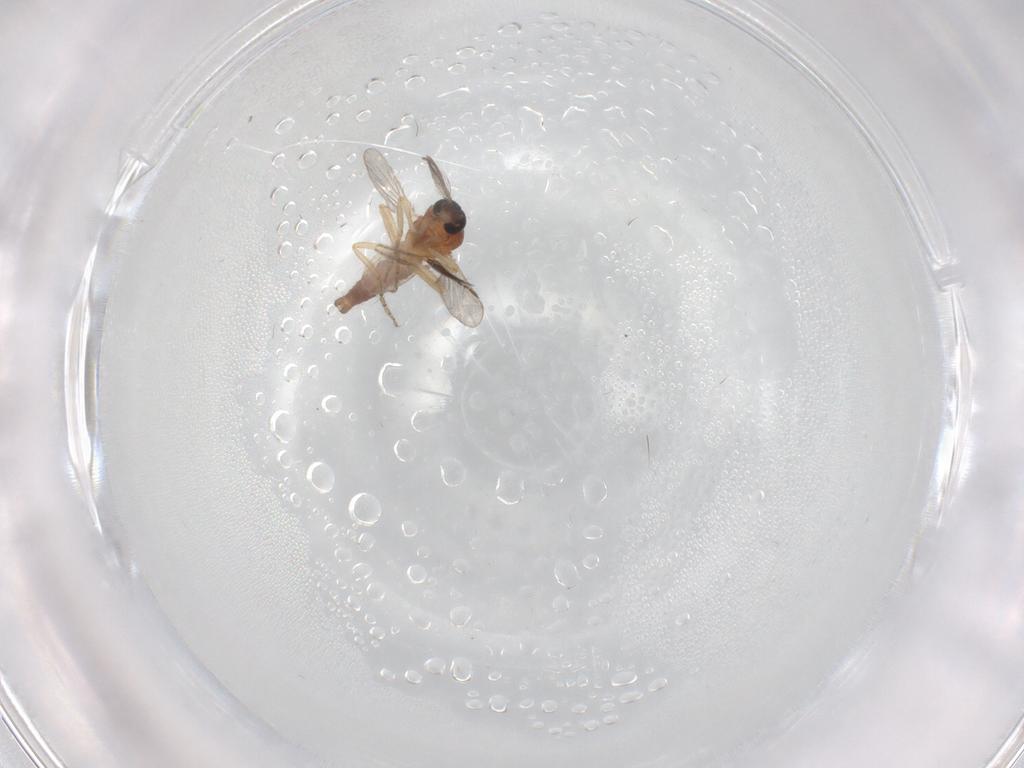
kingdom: Animalia
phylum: Arthropoda
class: Insecta
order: Diptera
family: Ceratopogonidae
